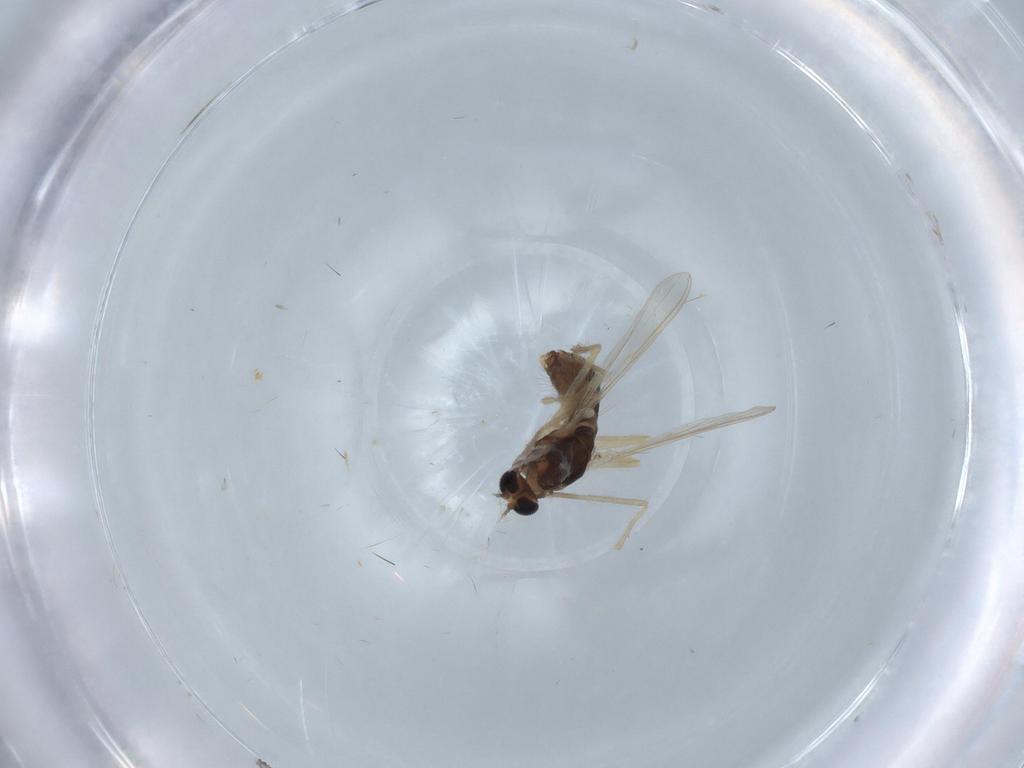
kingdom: Animalia
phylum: Arthropoda
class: Insecta
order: Diptera
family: Chironomidae
